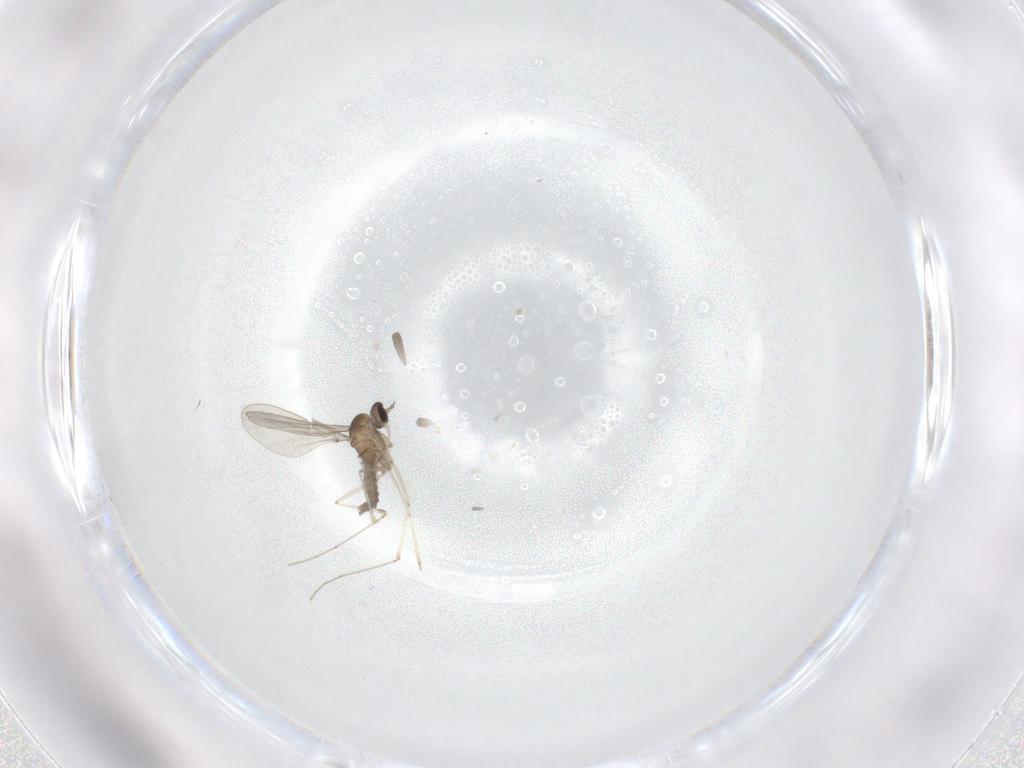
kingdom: Animalia
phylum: Arthropoda
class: Insecta
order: Diptera
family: Cecidomyiidae
